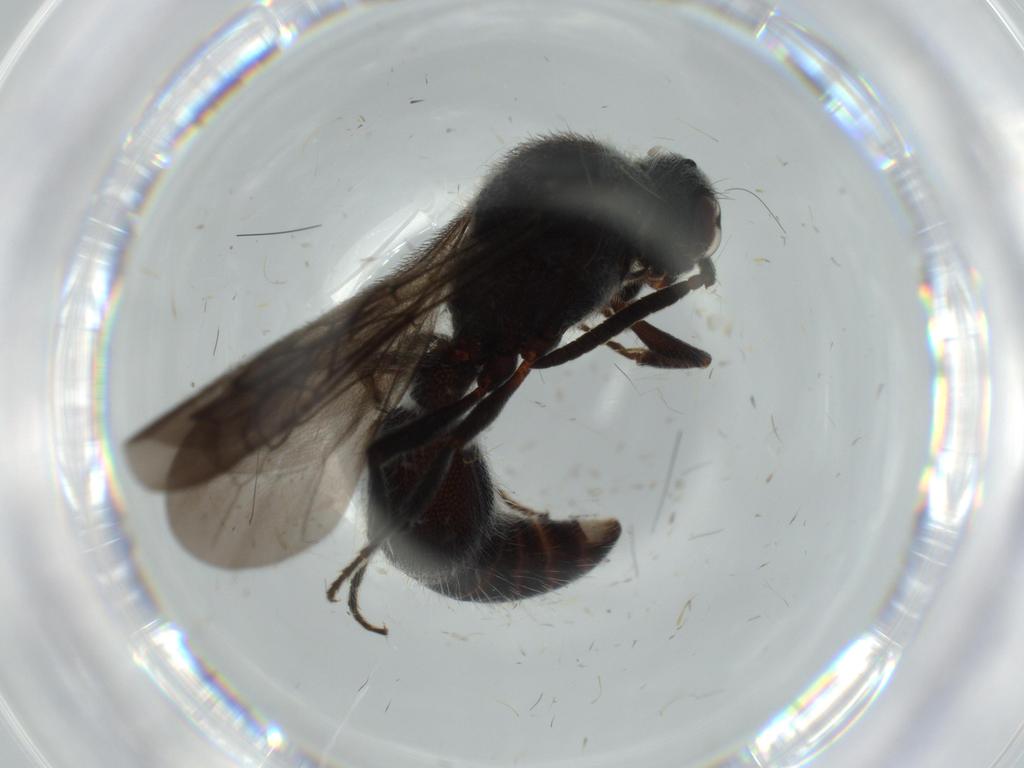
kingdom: Animalia
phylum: Arthropoda
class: Insecta
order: Hymenoptera
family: Mutillidae
